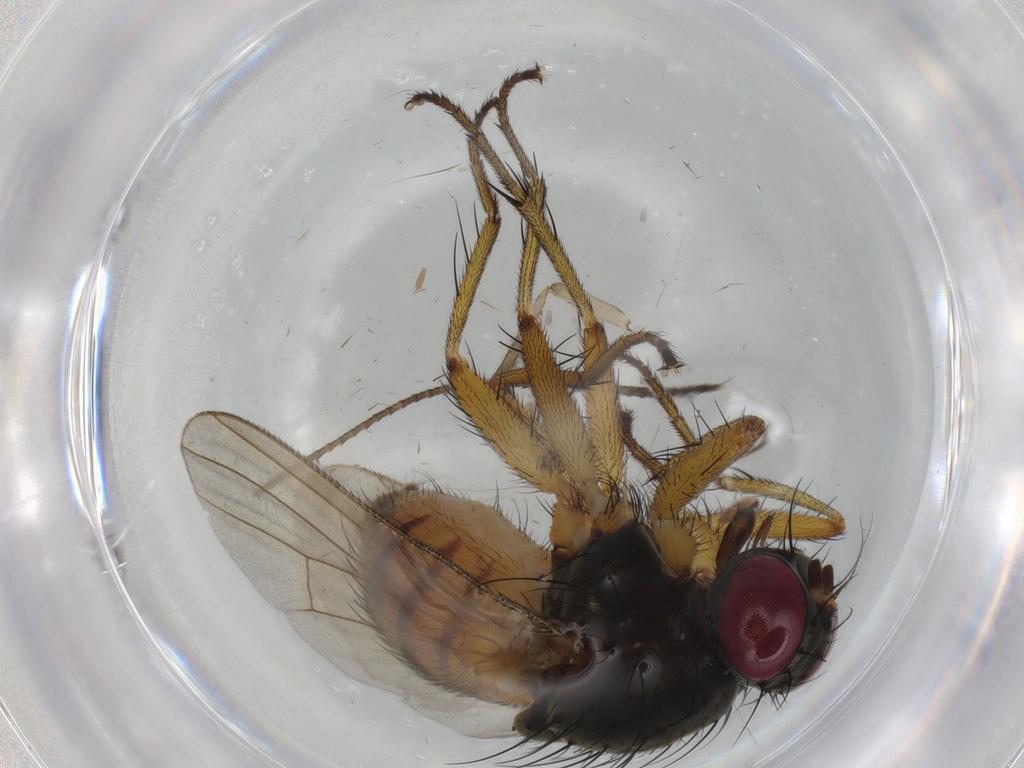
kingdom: Animalia
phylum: Arthropoda
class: Insecta
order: Diptera
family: Muscidae
